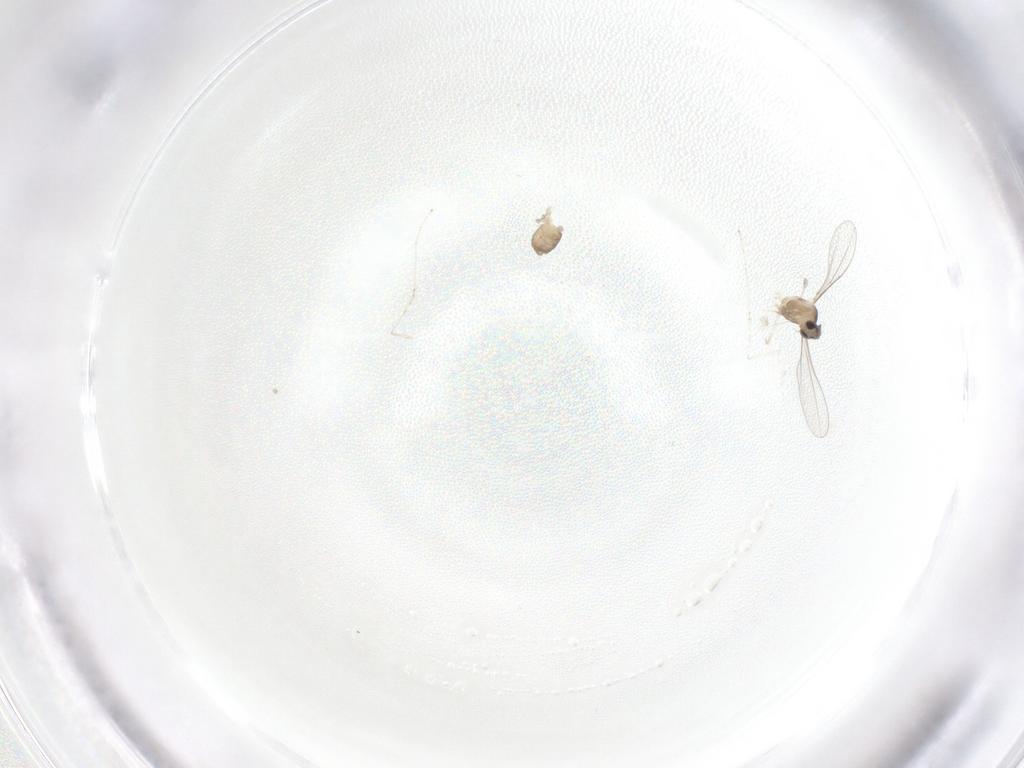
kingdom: Animalia
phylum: Arthropoda
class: Insecta
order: Diptera
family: Cecidomyiidae
